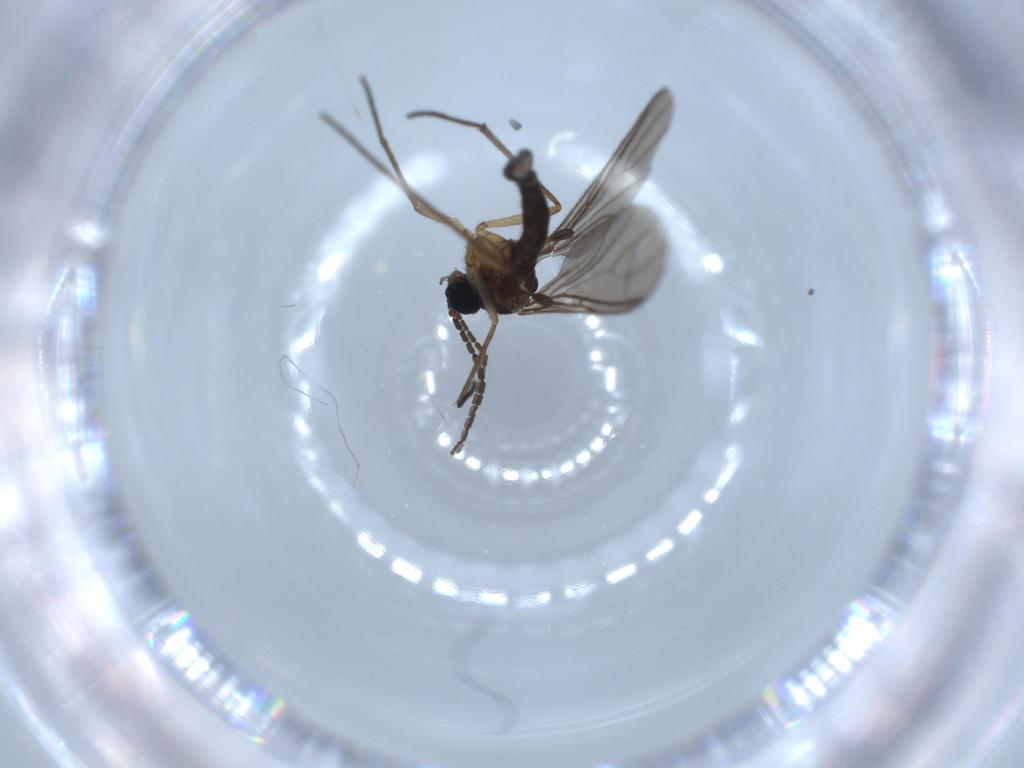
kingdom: Animalia
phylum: Arthropoda
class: Insecta
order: Diptera
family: Sciaridae
